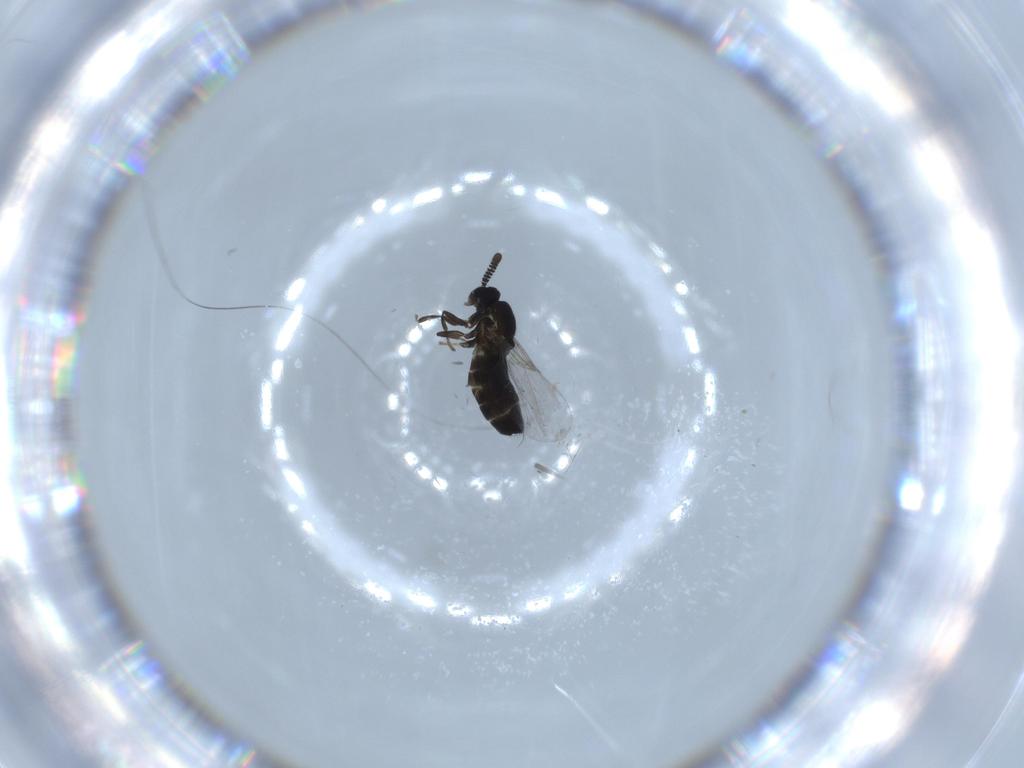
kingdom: Animalia
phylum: Arthropoda
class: Insecta
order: Diptera
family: Scatopsidae
